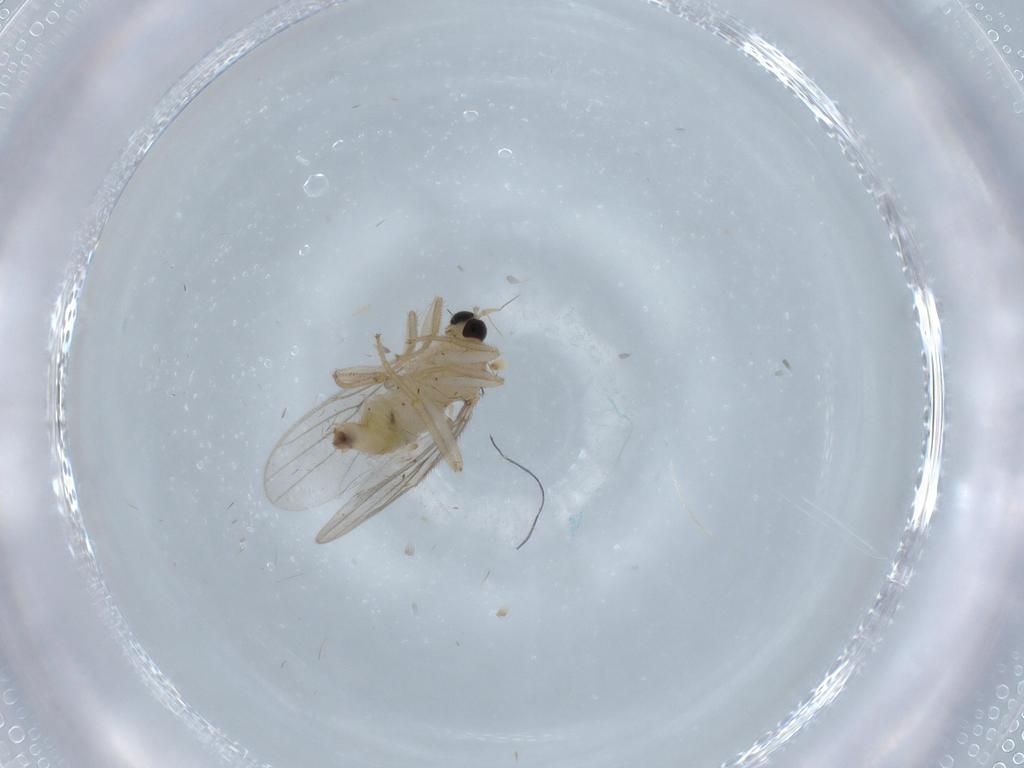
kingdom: Animalia
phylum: Arthropoda
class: Insecta
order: Diptera
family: Hybotidae
